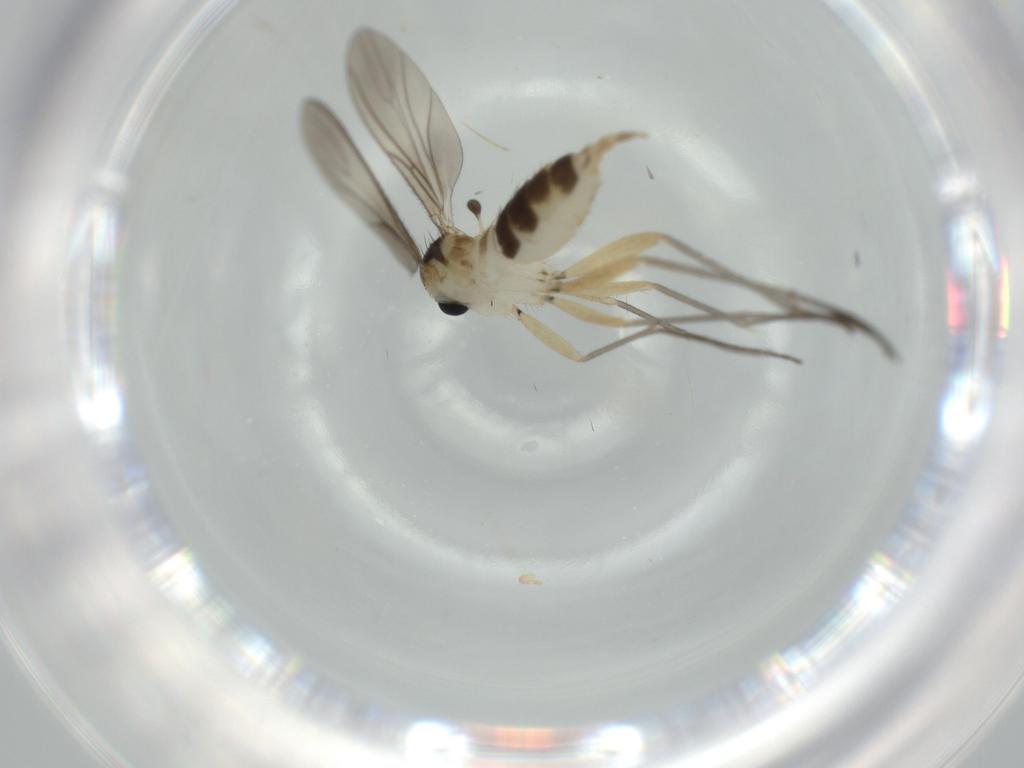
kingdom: Animalia
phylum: Arthropoda
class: Insecta
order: Diptera
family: Sciaridae
